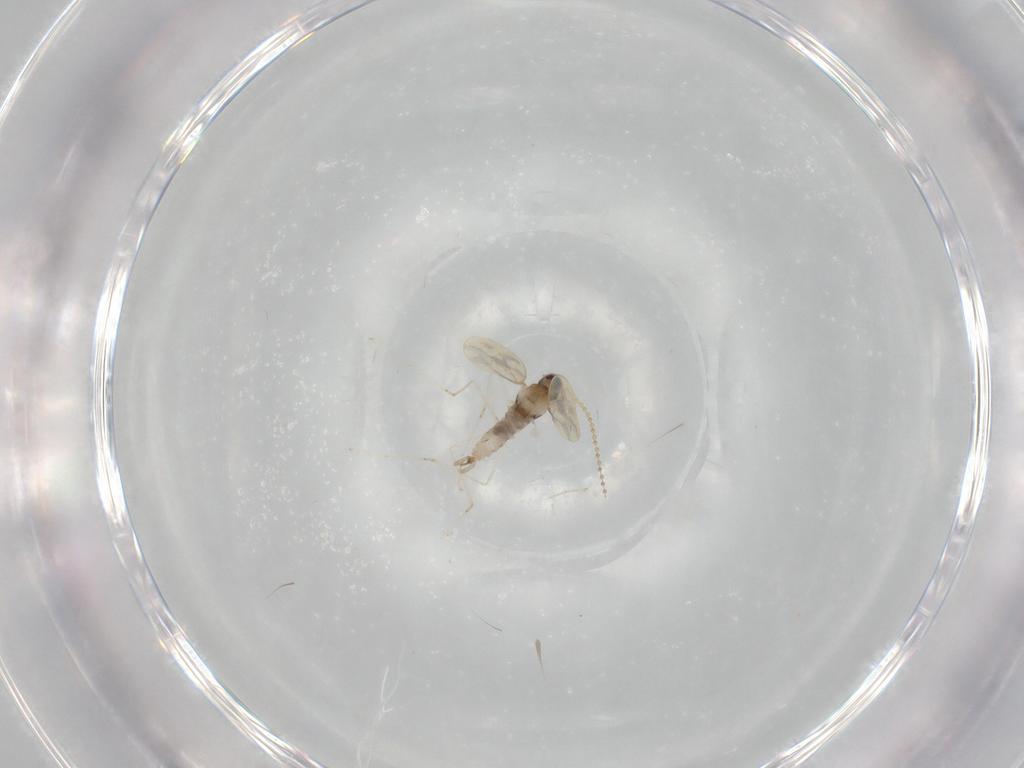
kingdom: Animalia
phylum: Arthropoda
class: Insecta
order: Diptera
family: Cecidomyiidae
